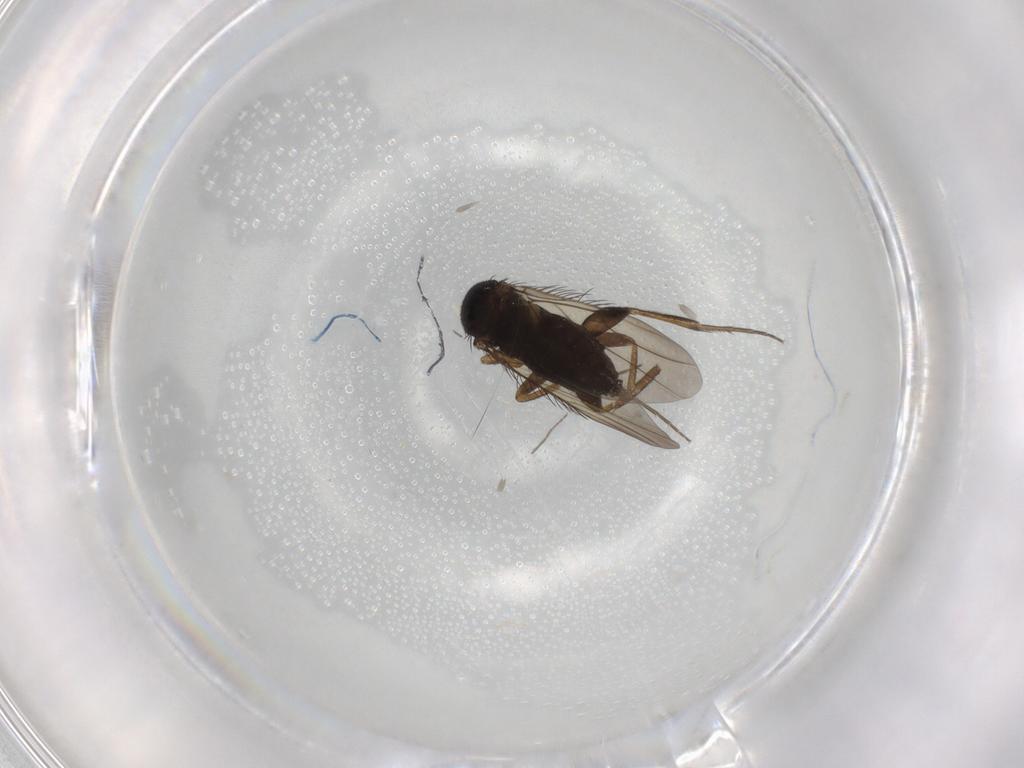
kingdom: Animalia
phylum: Arthropoda
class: Insecta
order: Diptera
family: Phoridae
